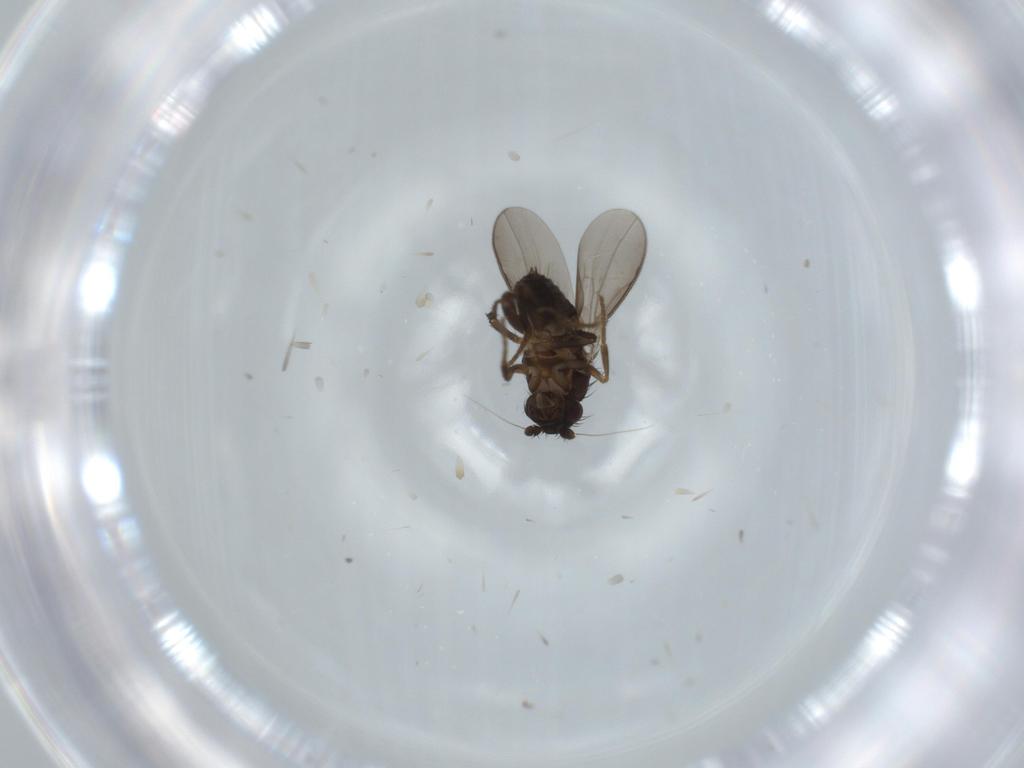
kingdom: Animalia
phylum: Arthropoda
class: Insecta
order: Diptera
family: Sphaeroceridae
